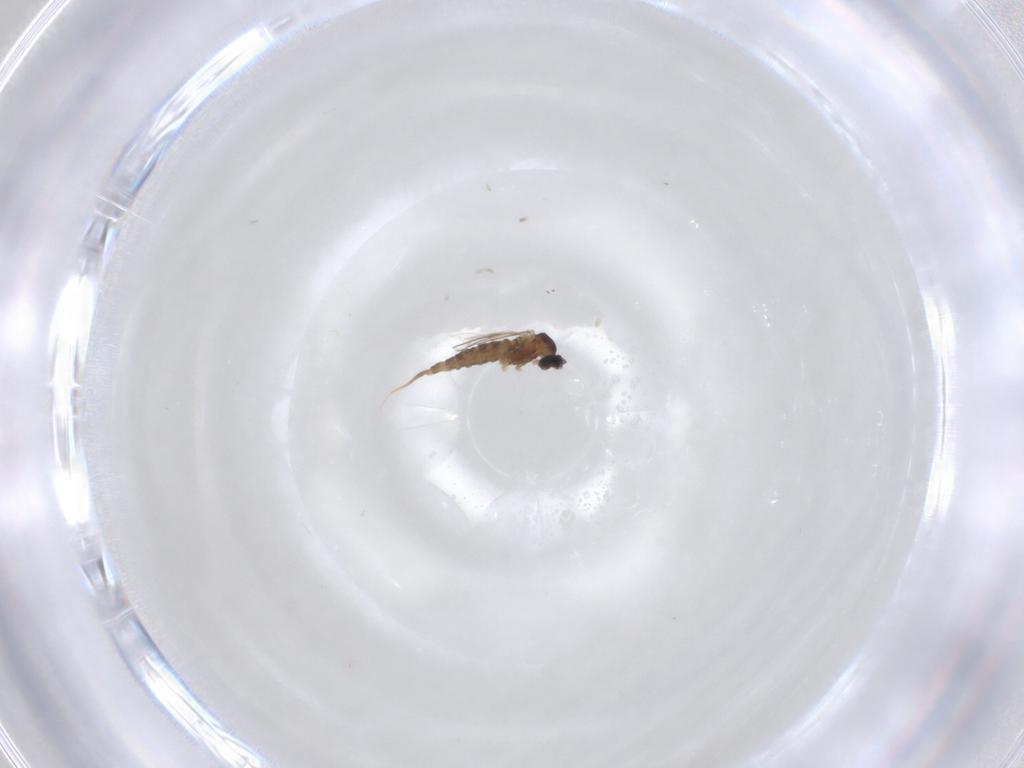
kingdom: Animalia
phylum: Arthropoda
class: Insecta
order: Diptera
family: Cecidomyiidae
